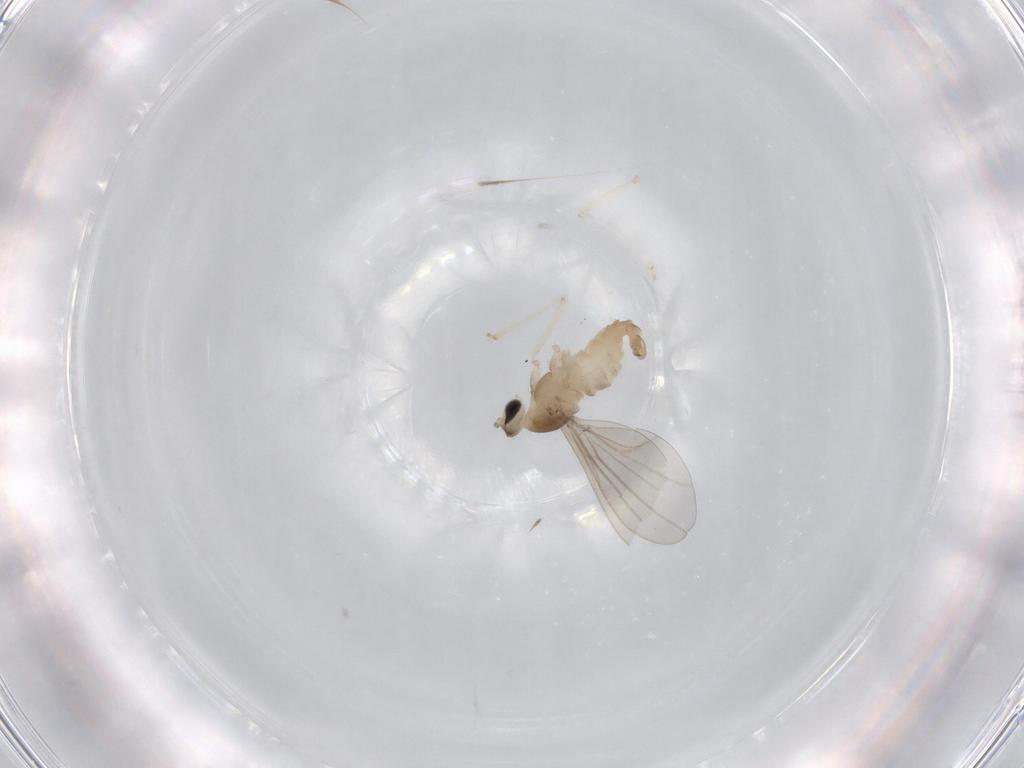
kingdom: Animalia
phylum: Arthropoda
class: Insecta
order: Diptera
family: Cecidomyiidae
